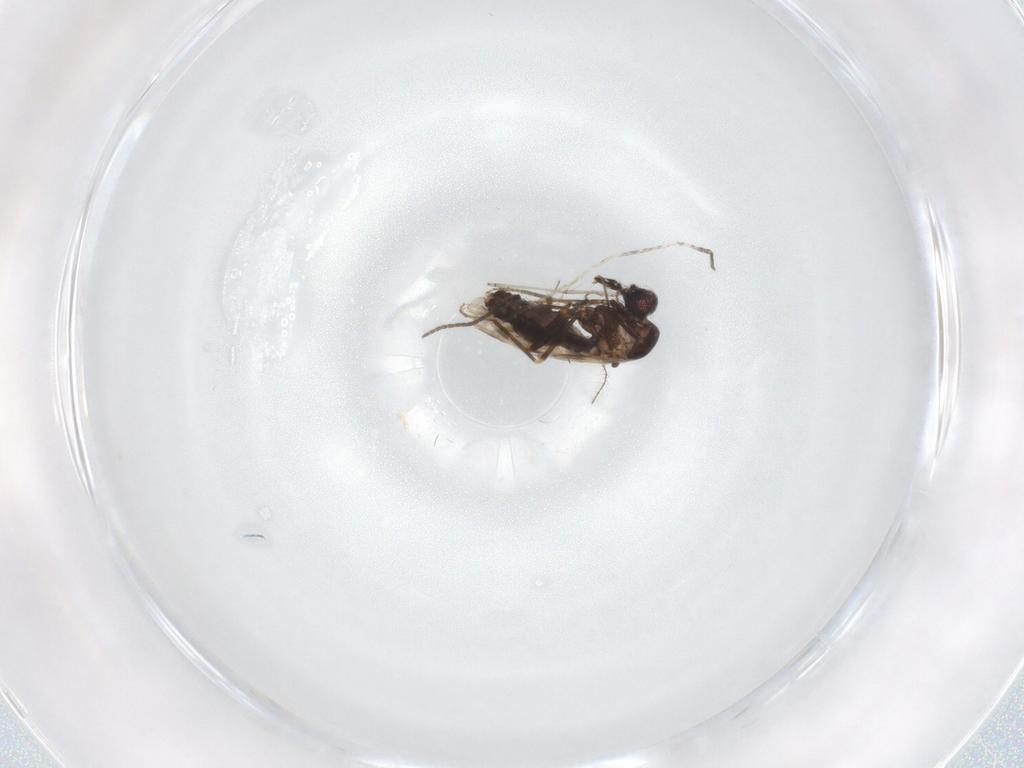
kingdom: Animalia
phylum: Arthropoda
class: Insecta
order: Diptera
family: Ceratopogonidae
